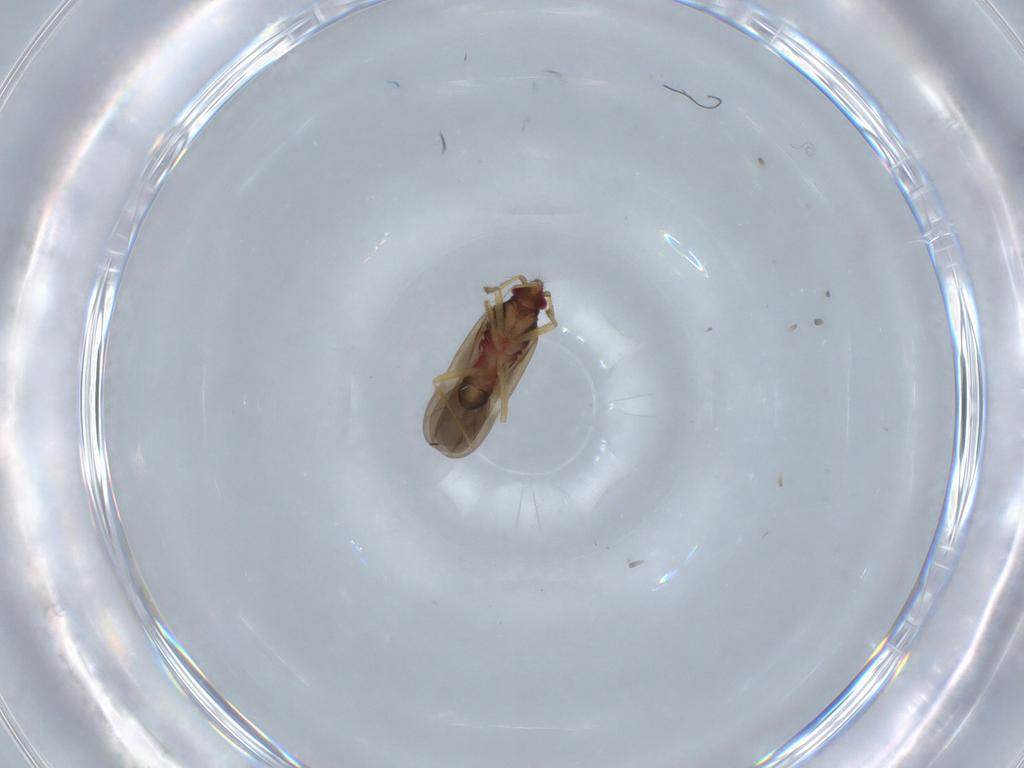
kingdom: Animalia
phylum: Arthropoda
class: Insecta
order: Hemiptera
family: Ceratocombidae
